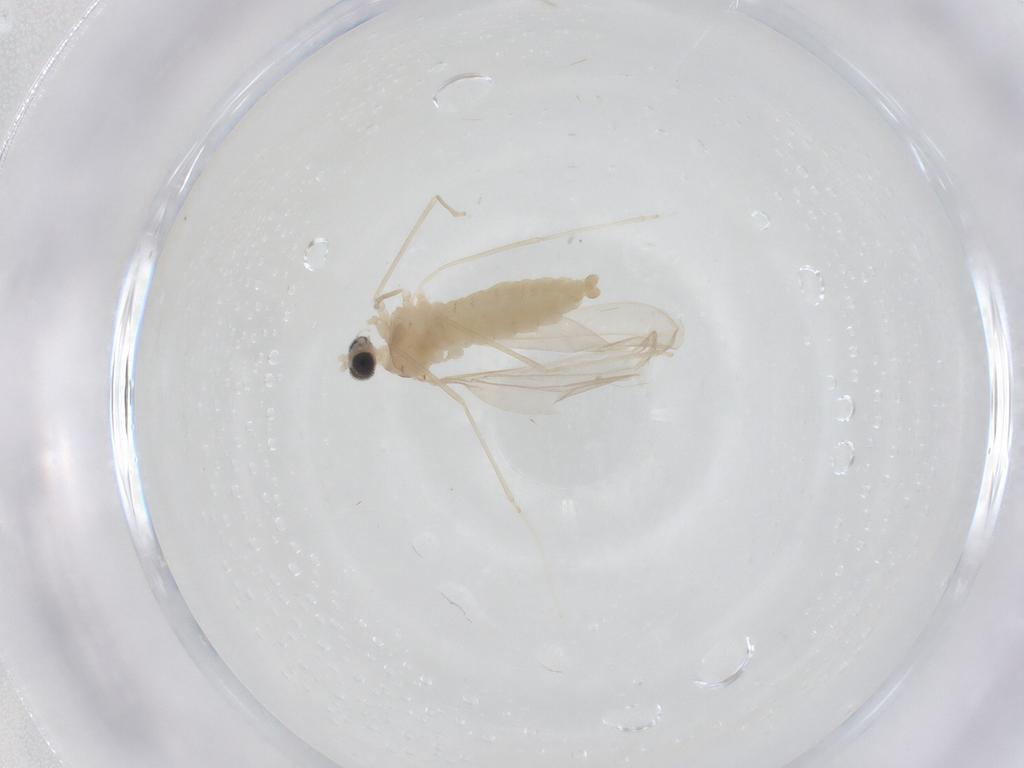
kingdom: Animalia
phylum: Arthropoda
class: Insecta
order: Diptera
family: Cecidomyiidae
